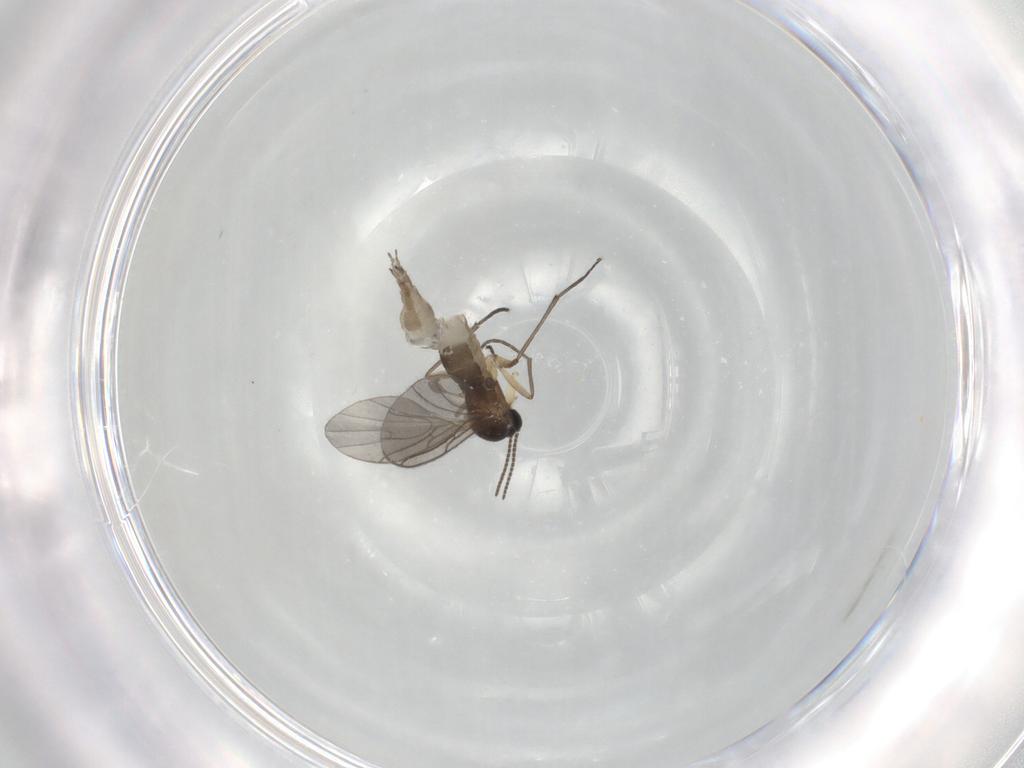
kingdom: Animalia
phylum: Arthropoda
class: Insecta
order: Diptera
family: Sciaridae
